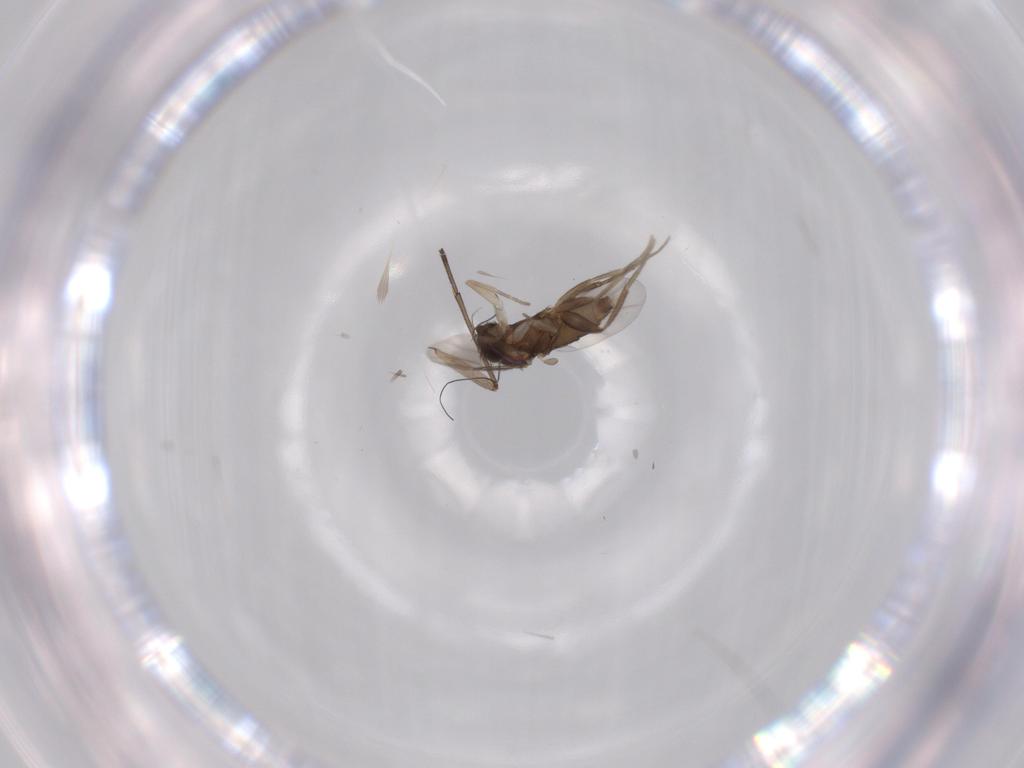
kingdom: Animalia
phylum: Arthropoda
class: Insecta
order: Diptera
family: Phoridae
